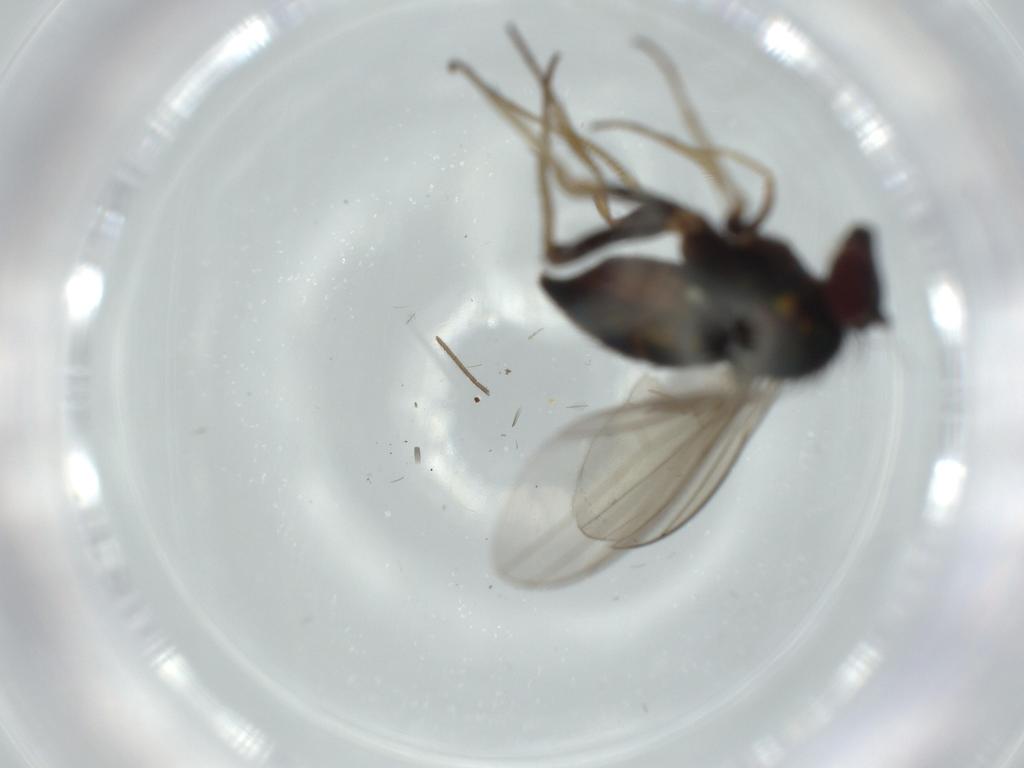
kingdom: Animalia
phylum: Arthropoda
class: Insecta
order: Diptera
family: Dolichopodidae
